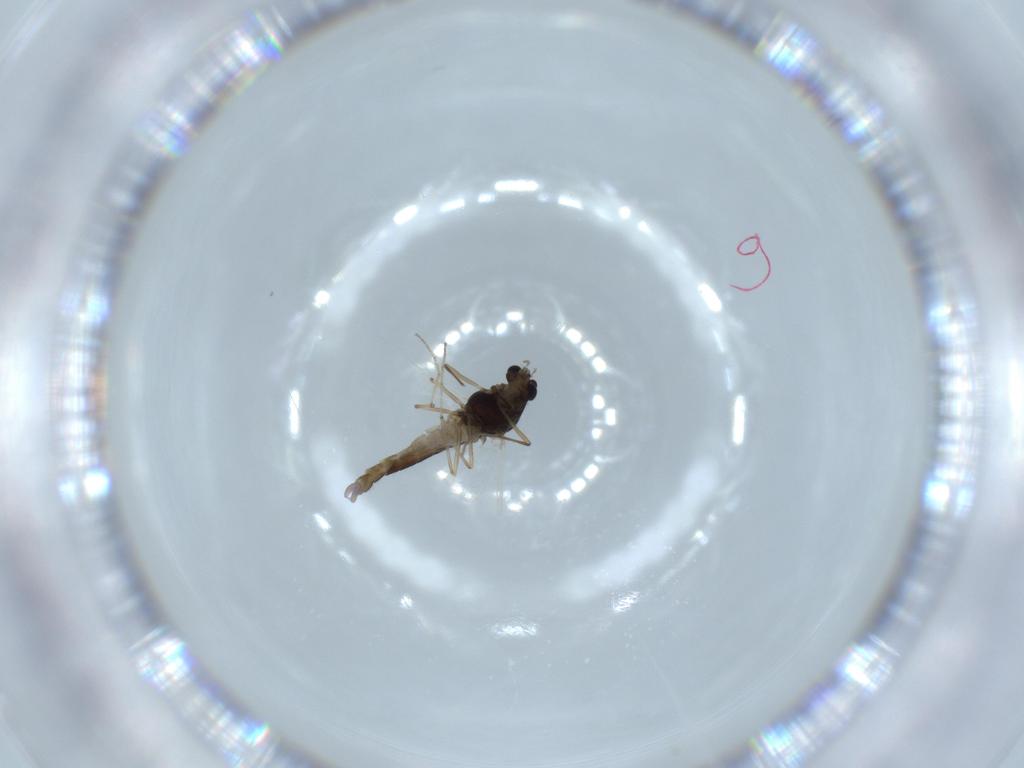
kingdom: Animalia
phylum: Arthropoda
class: Insecta
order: Diptera
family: Chironomidae
